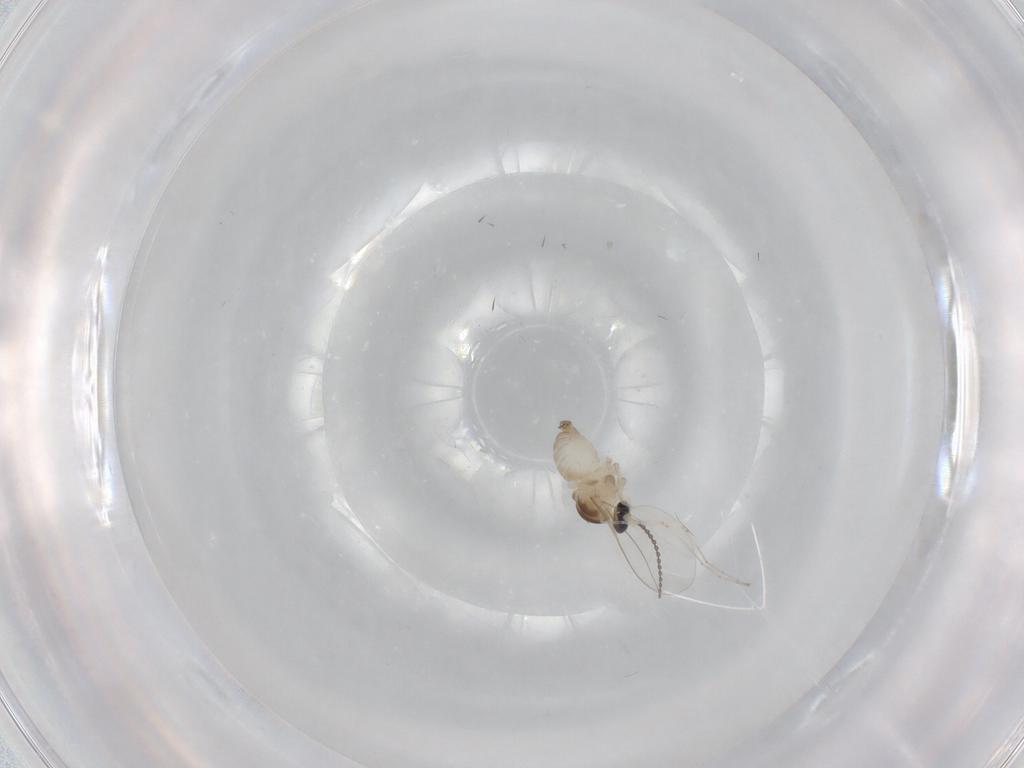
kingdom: Animalia
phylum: Arthropoda
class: Insecta
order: Diptera
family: Cecidomyiidae
